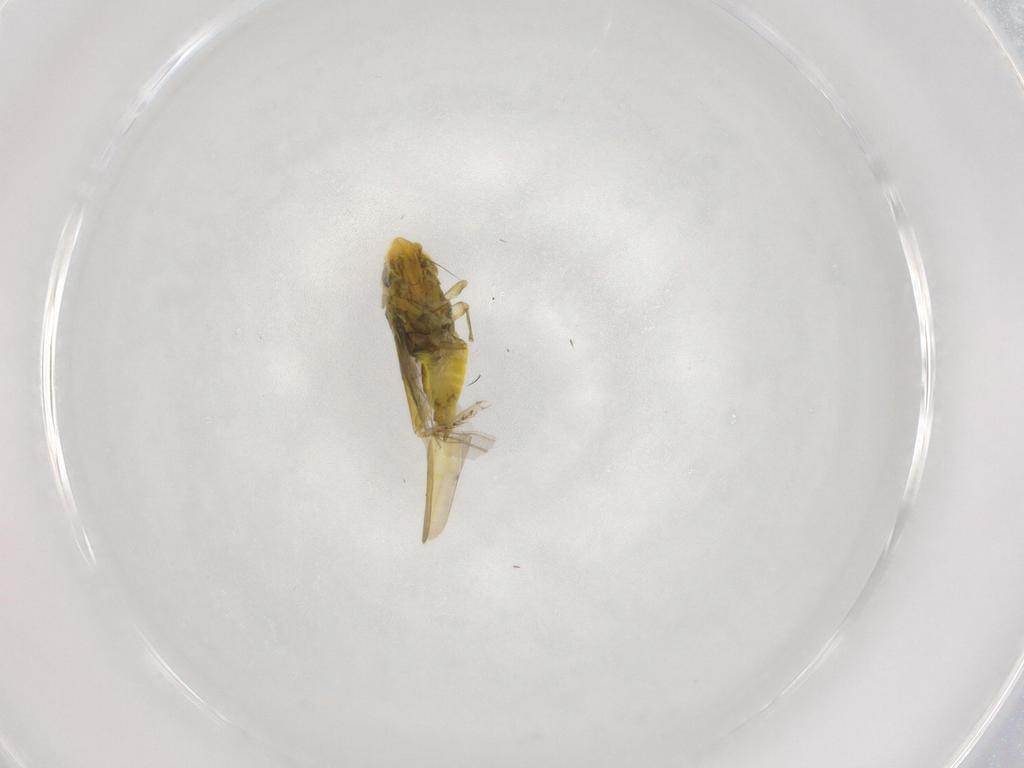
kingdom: Animalia
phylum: Arthropoda
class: Insecta
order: Hemiptera
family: Cicadellidae
